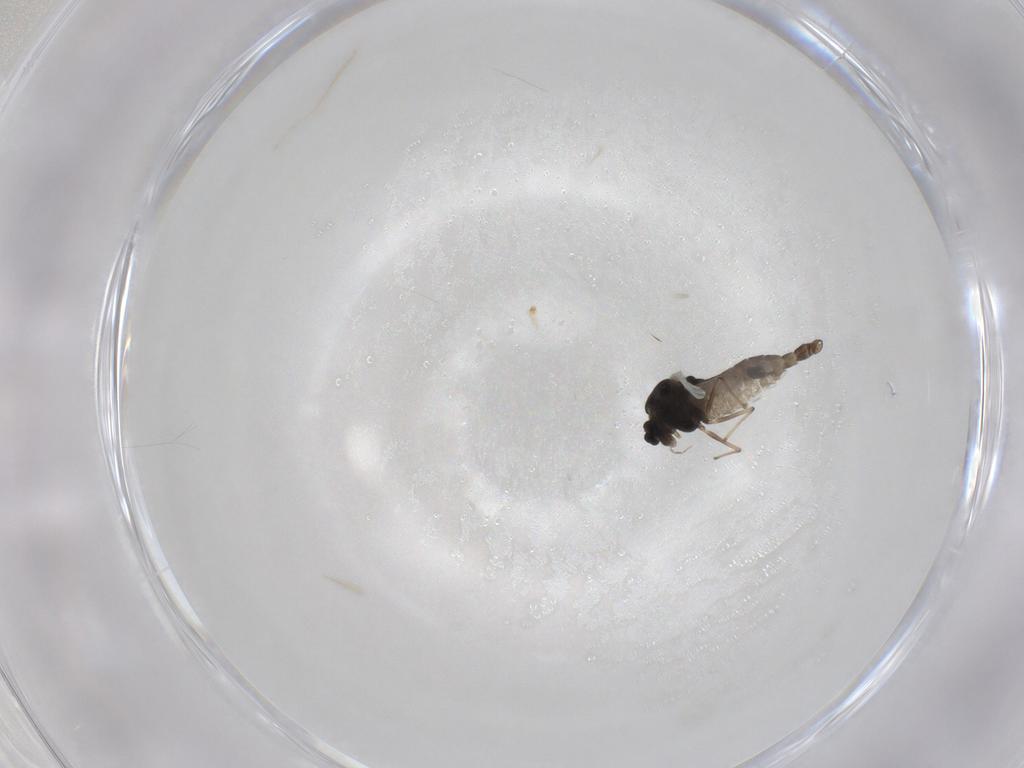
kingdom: Animalia
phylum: Arthropoda
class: Insecta
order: Diptera
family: Chironomidae
